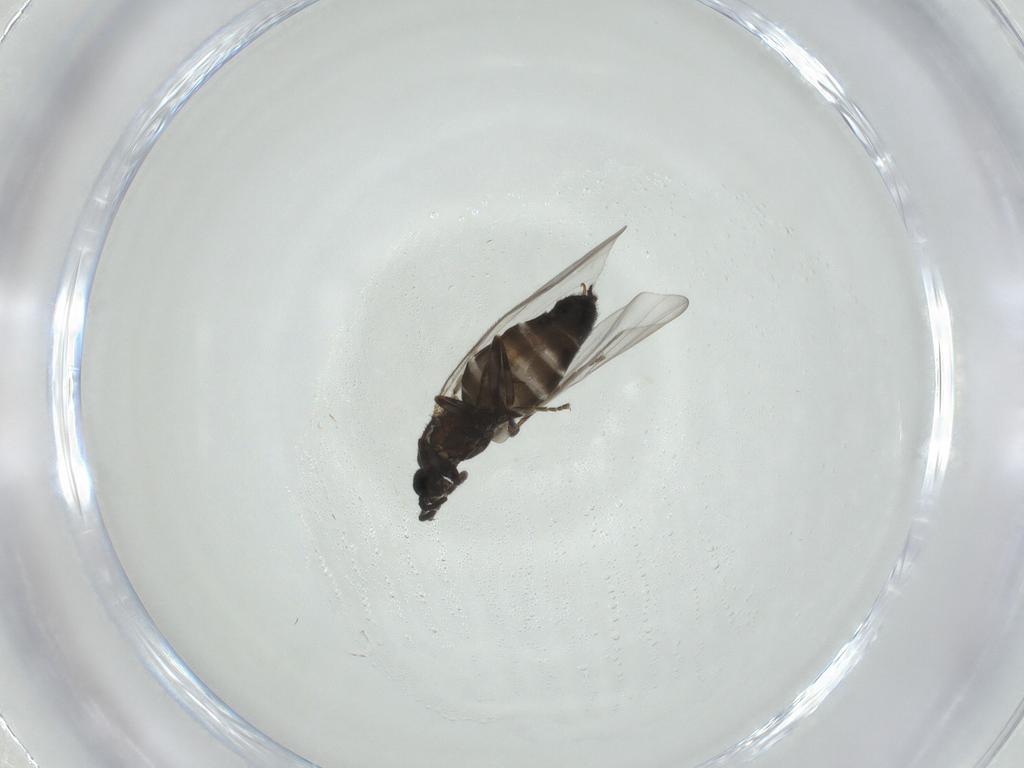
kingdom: Animalia
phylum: Arthropoda
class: Insecta
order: Diptera
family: Scatopsidae
